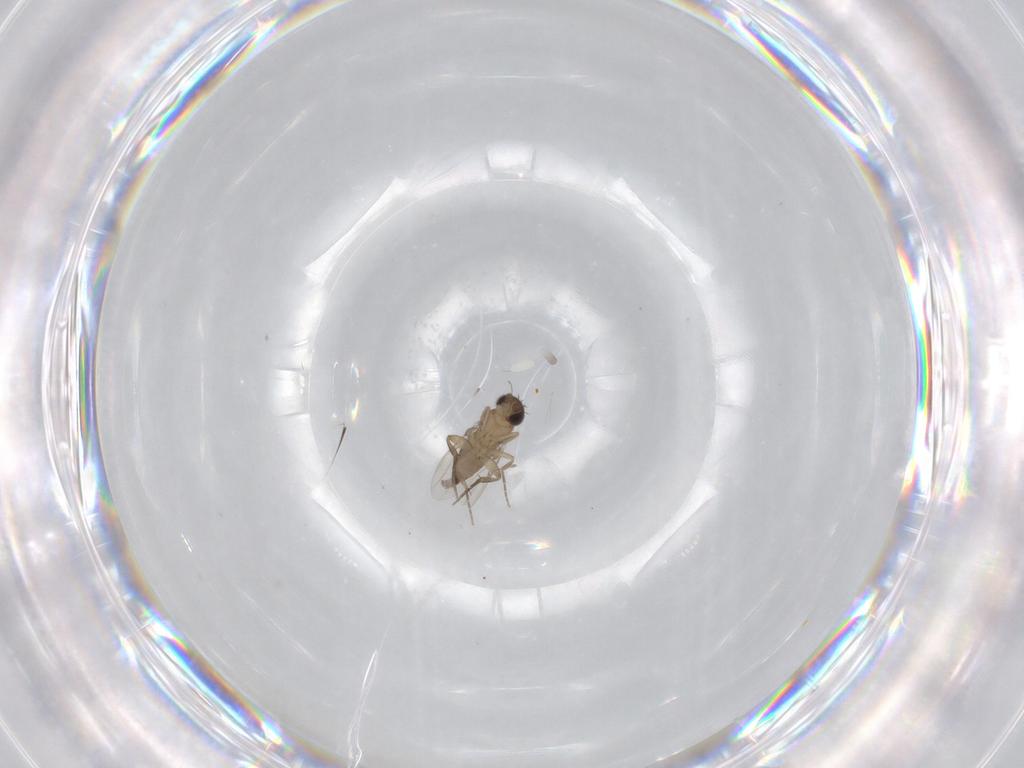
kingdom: Animalia
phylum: Arthropoda
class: Insecta
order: Diptera
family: Phoridae
